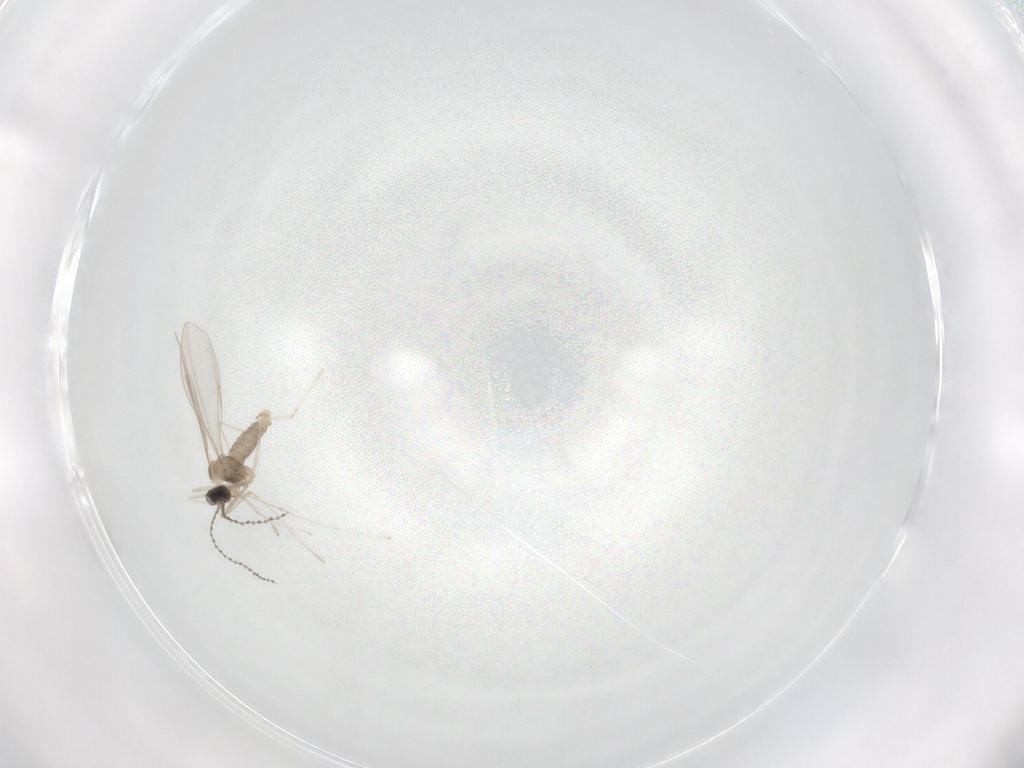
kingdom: Animalia
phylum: Arthropoda
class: Insecta
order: Diptera
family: Cecidomyiidae
